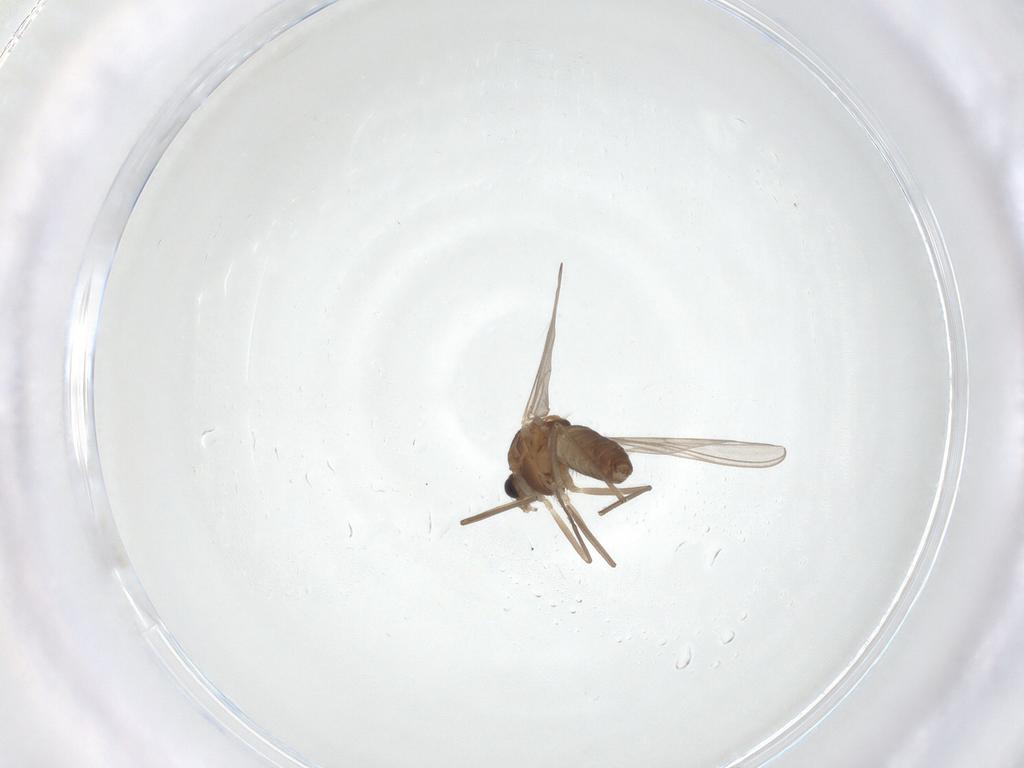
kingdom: Animalia
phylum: Arthropoda
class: Insecta
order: Diptera
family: Chironomidae
